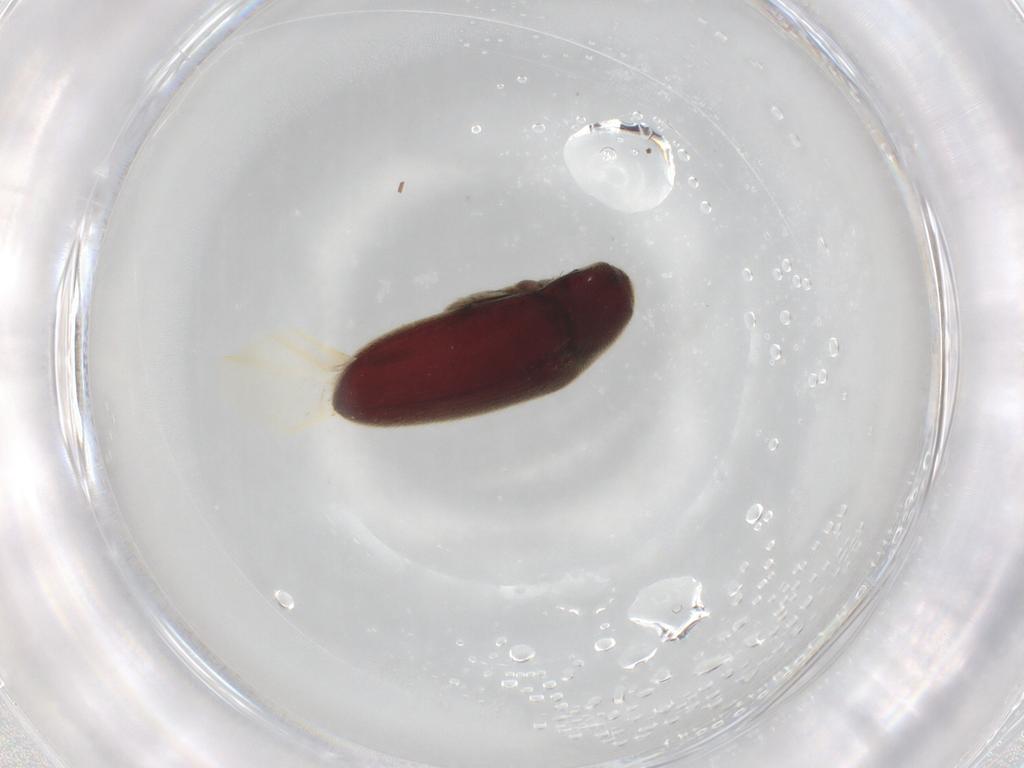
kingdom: Animalia
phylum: Arthropoda
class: Insecta
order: Coleoptera
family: Throscidae
